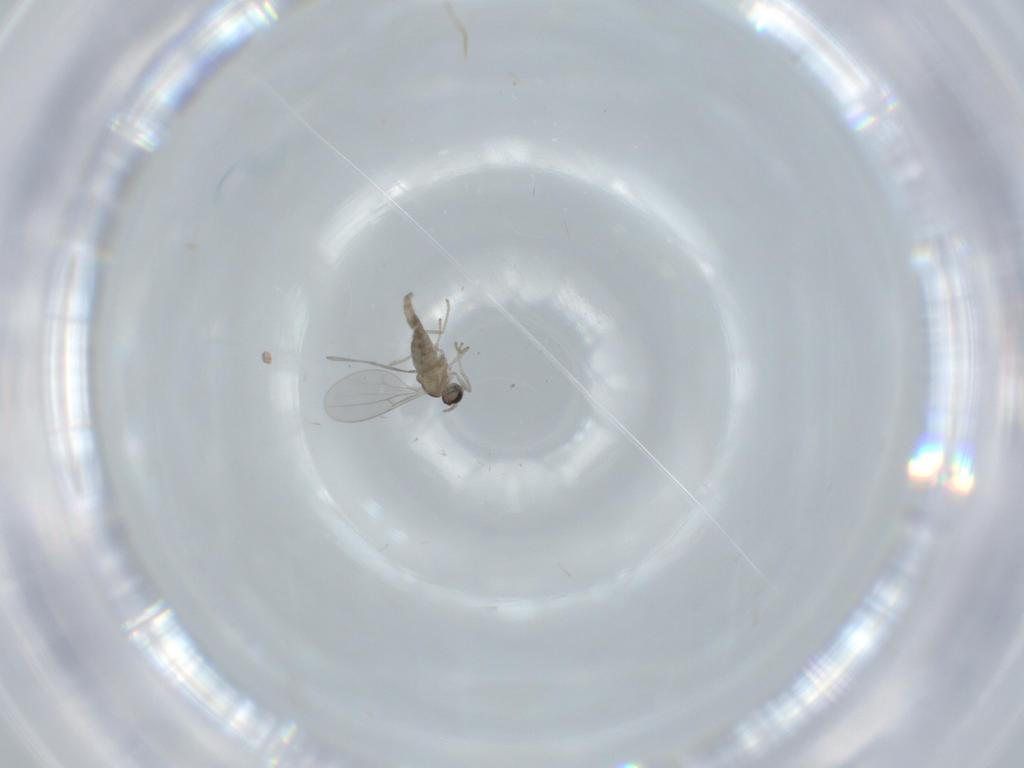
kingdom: Animalia
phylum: Arthropoda
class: Insecta
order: Diptera
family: Cecidomyiidae
